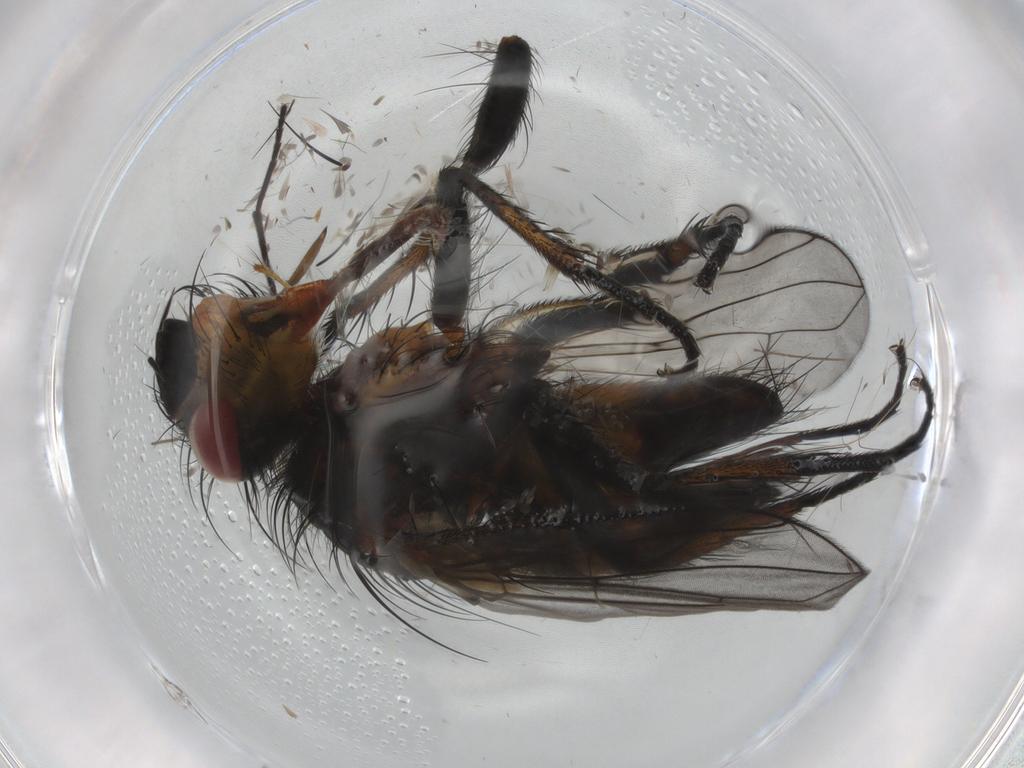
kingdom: Animalia
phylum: Arthropoda
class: Insecta
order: Diptera
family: Tachinidae
